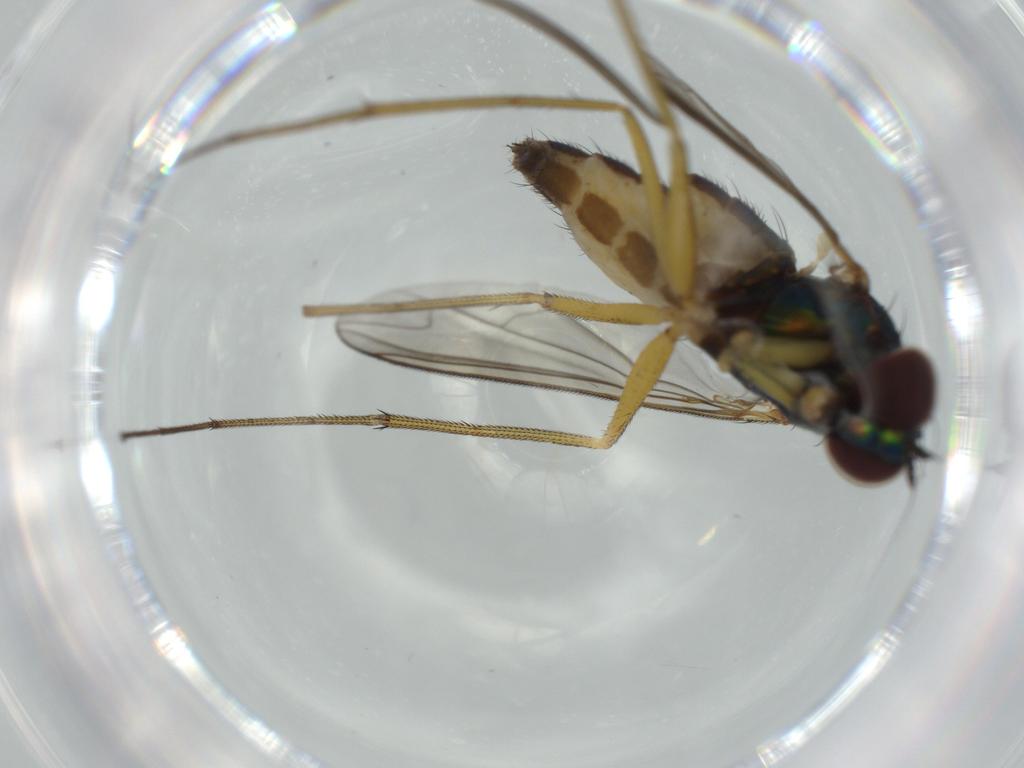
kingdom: Animalia
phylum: Arthropoda
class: Insecta
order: Diptera
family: Dolichopodidae
